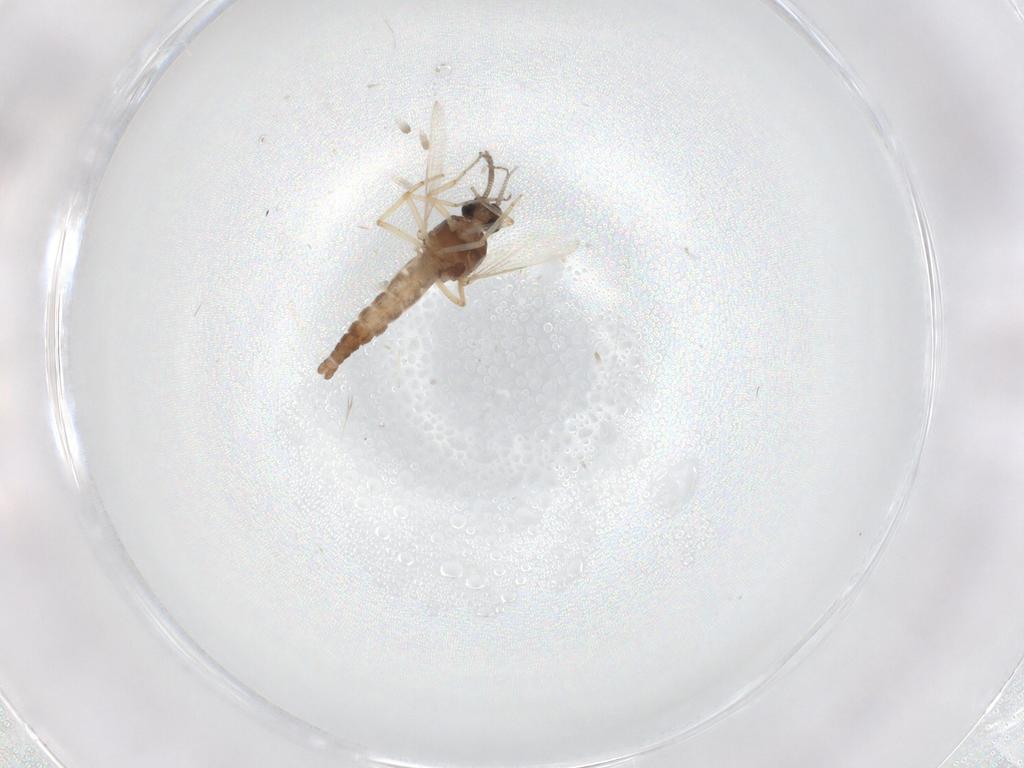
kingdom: Animalia
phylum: Arthropoda
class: Insecta
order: Diptera
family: Ceratopogonidae
